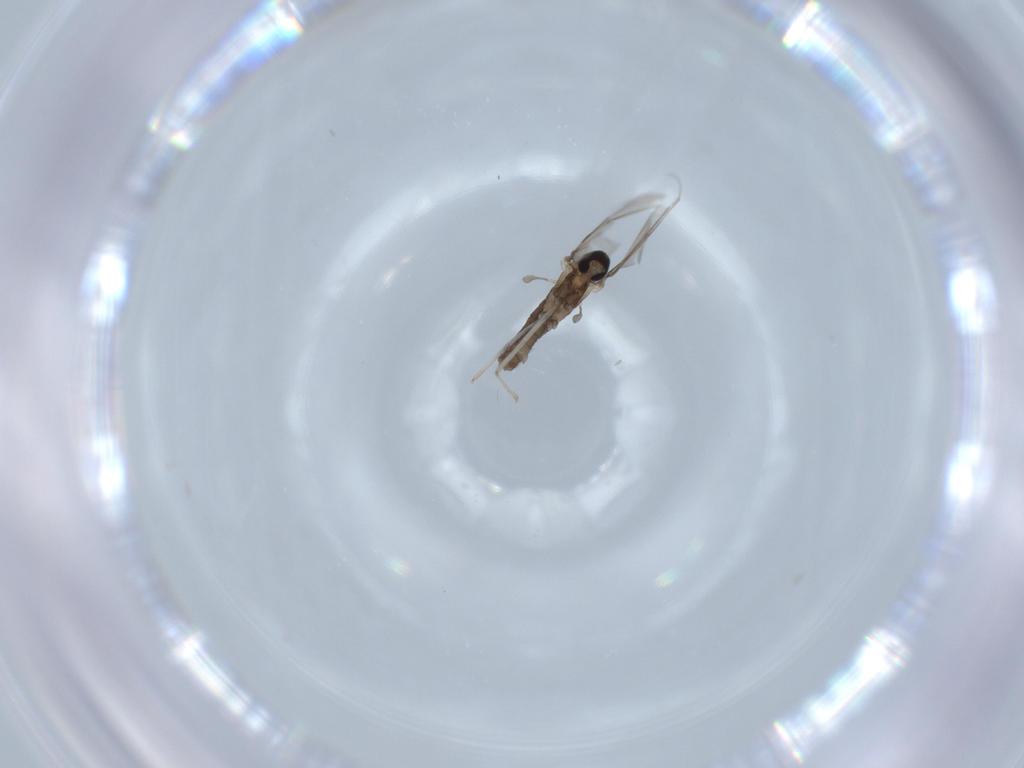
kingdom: Animalia
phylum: Arthropoda
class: Insecta
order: Diptera
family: Cecidomyiidae
